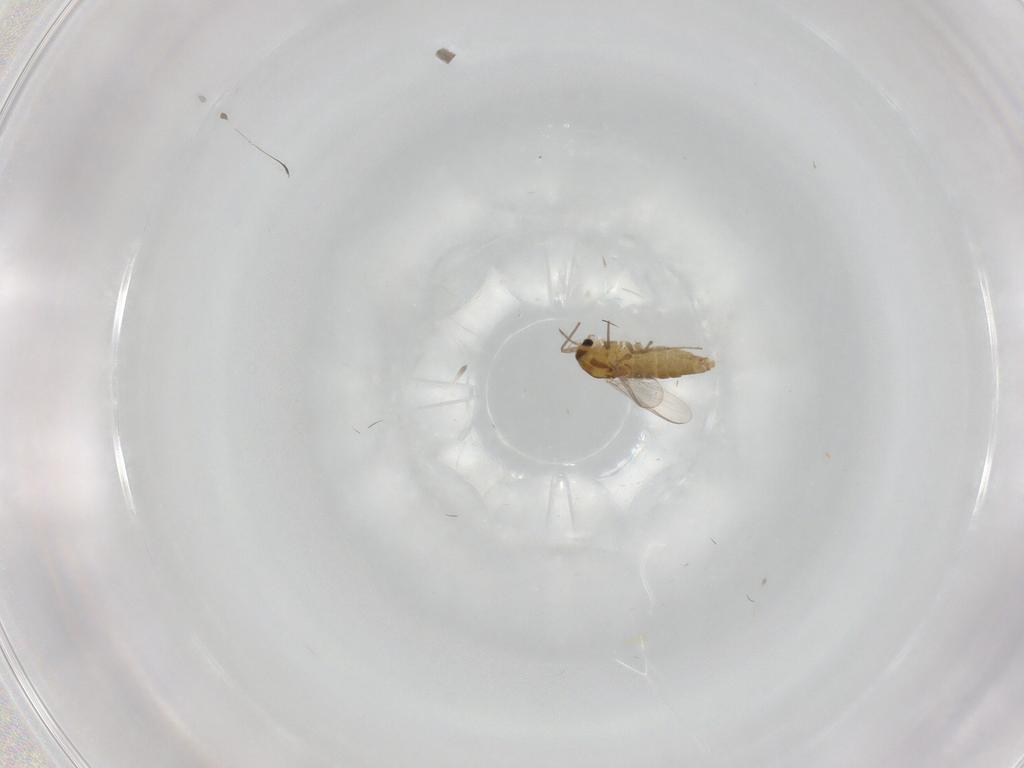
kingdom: Animalia
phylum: Arthropoda
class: Insecta
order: Diptera
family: Chironomidae
